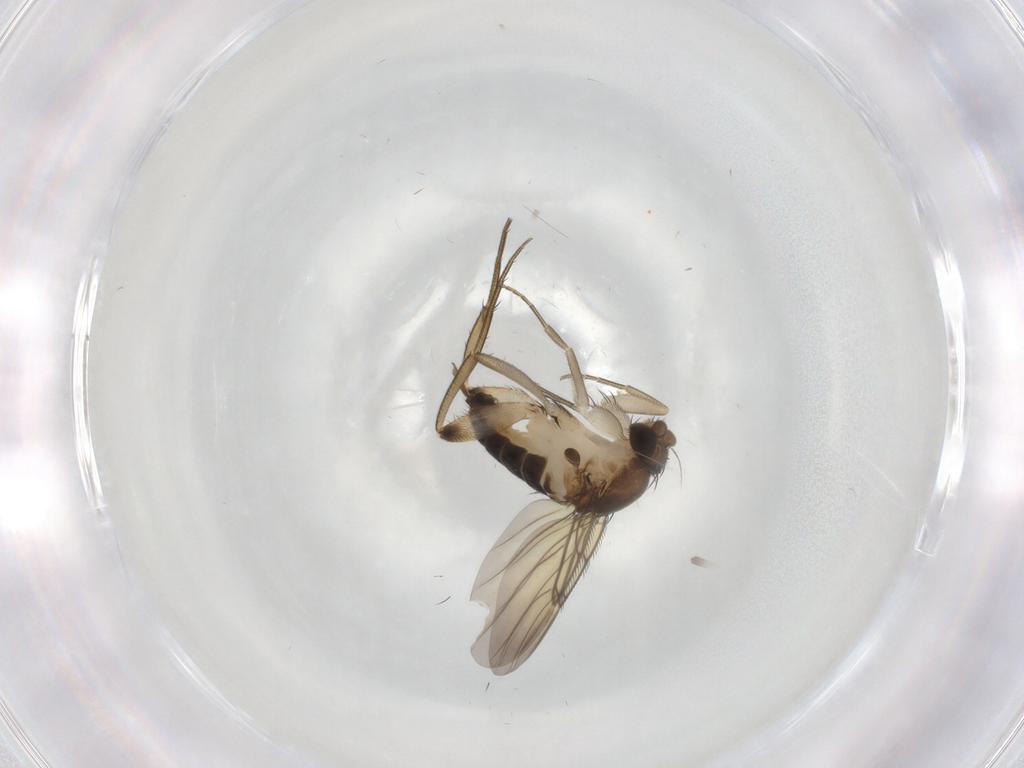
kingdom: Animalia
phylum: Arthropoda
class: Insecta
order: Diptera
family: Phoridae
